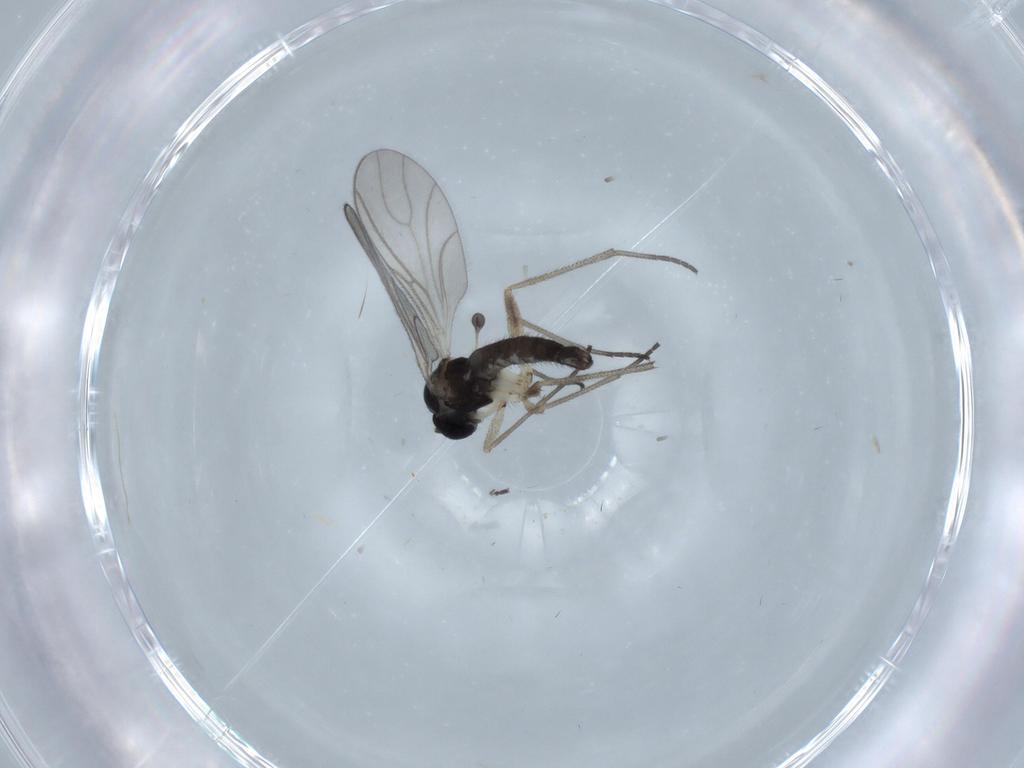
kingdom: Animalia
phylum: Arthropoda
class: Insecta
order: Diptera
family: Sciaridae
